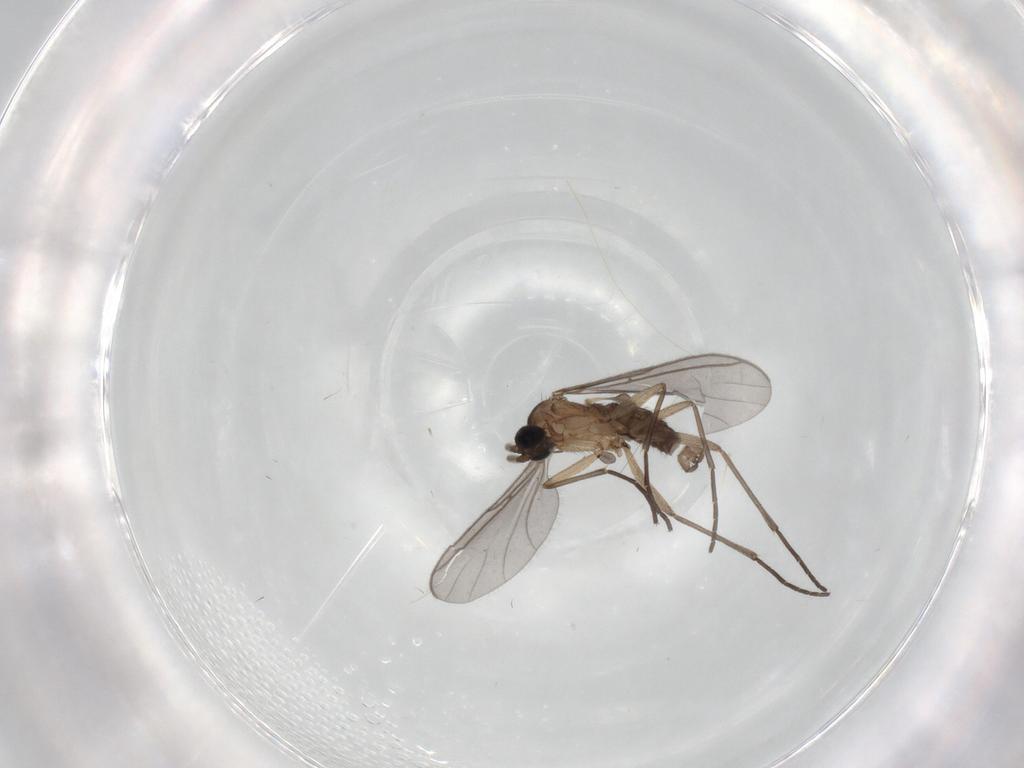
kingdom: Animalia
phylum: Arthropoda
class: Insecta
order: Diptera
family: Sciaridae
